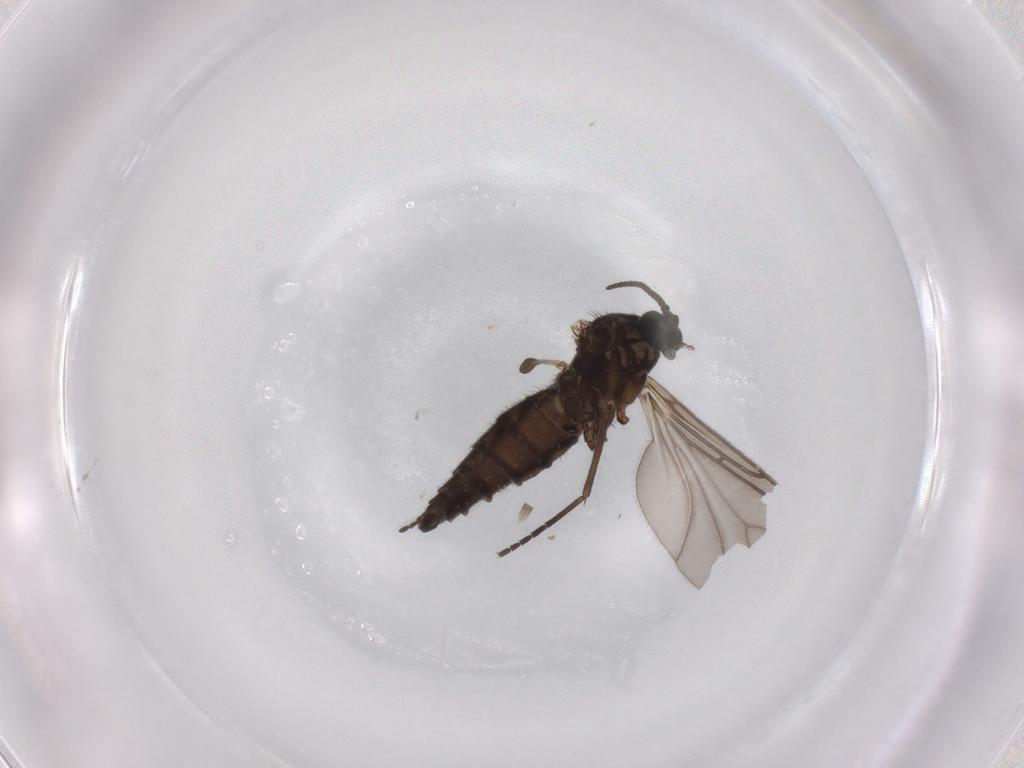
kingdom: Animalia
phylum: Arthropoda
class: Insecta
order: Diptera
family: Sciaridae
